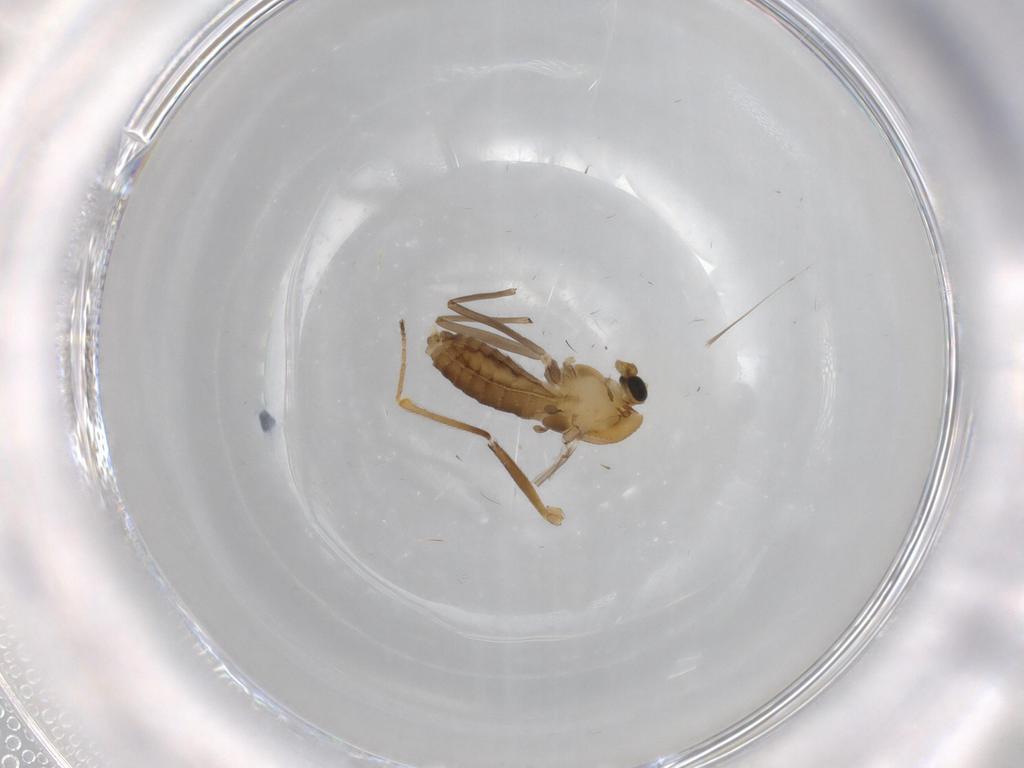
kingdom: Animalia
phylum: Arthropoda
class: Insecta
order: Diptera
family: Chironomidae
